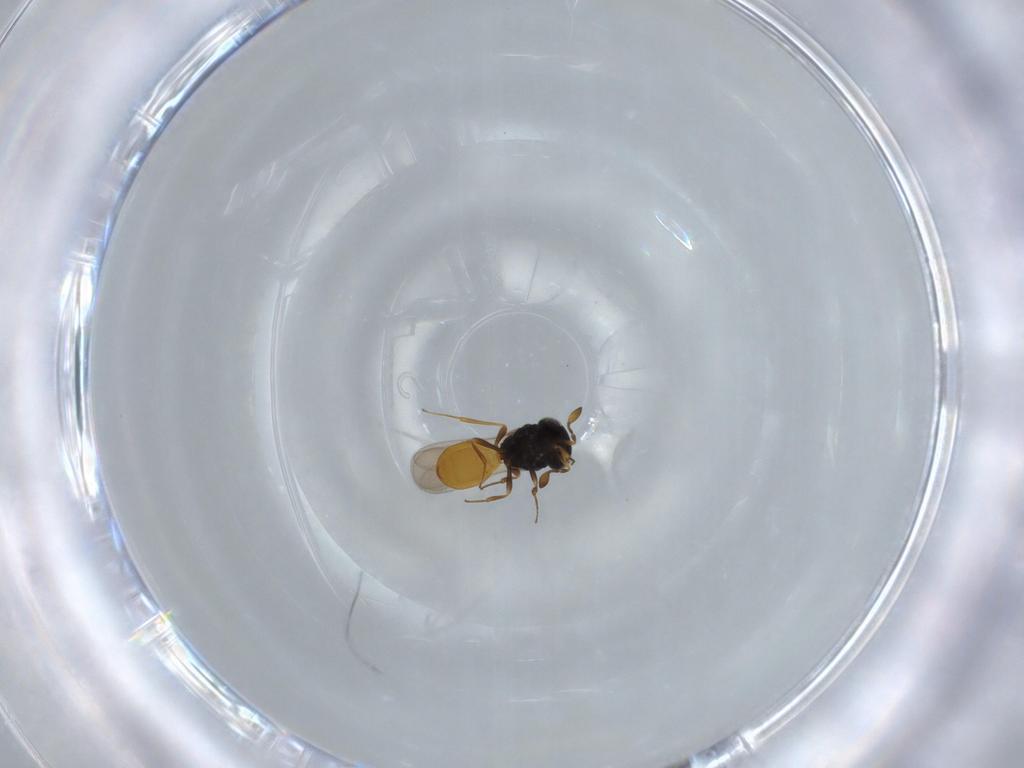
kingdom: Animalia
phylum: Arthropoda
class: Insecta
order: Hymenoptera
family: Scelionidae
